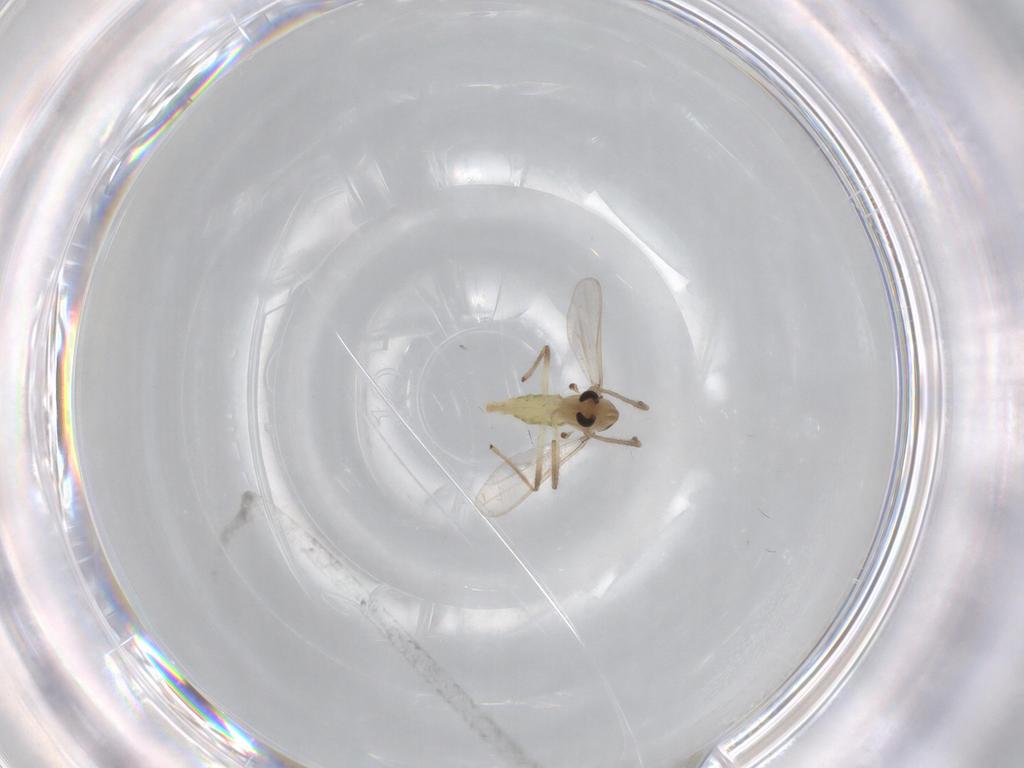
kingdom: Animalia
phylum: Arthropoda
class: Insecta
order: Diptera
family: Chironomidae
